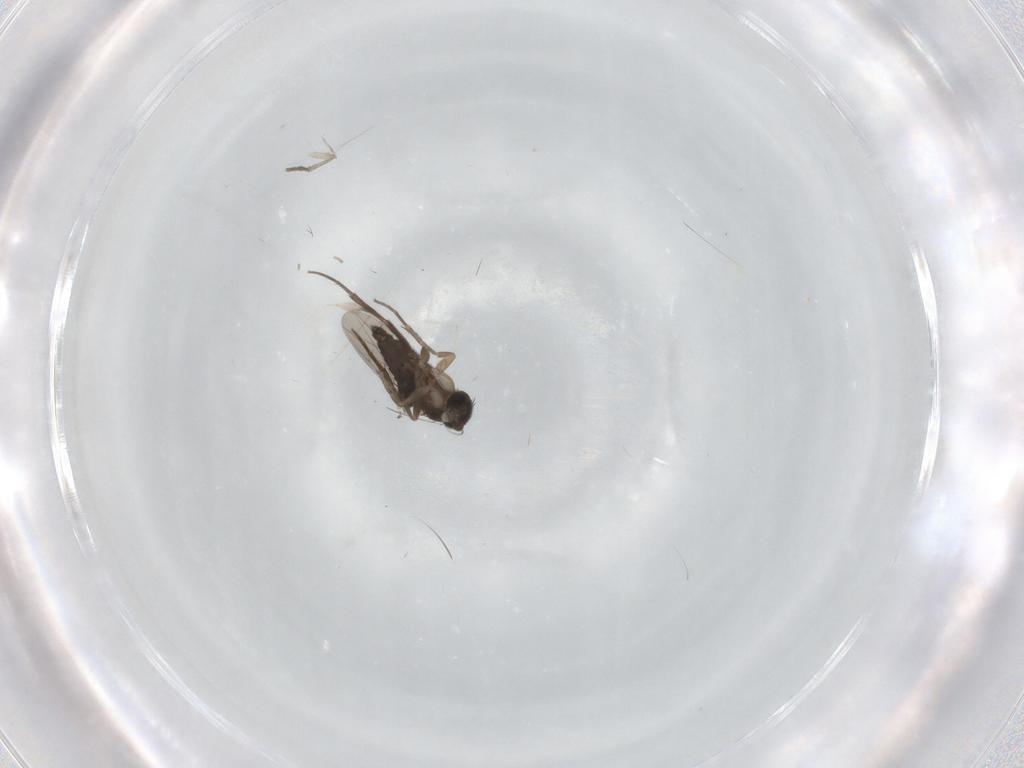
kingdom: Animalia
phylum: Arthropoda
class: Insecta
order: Diptera
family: Phoridae
